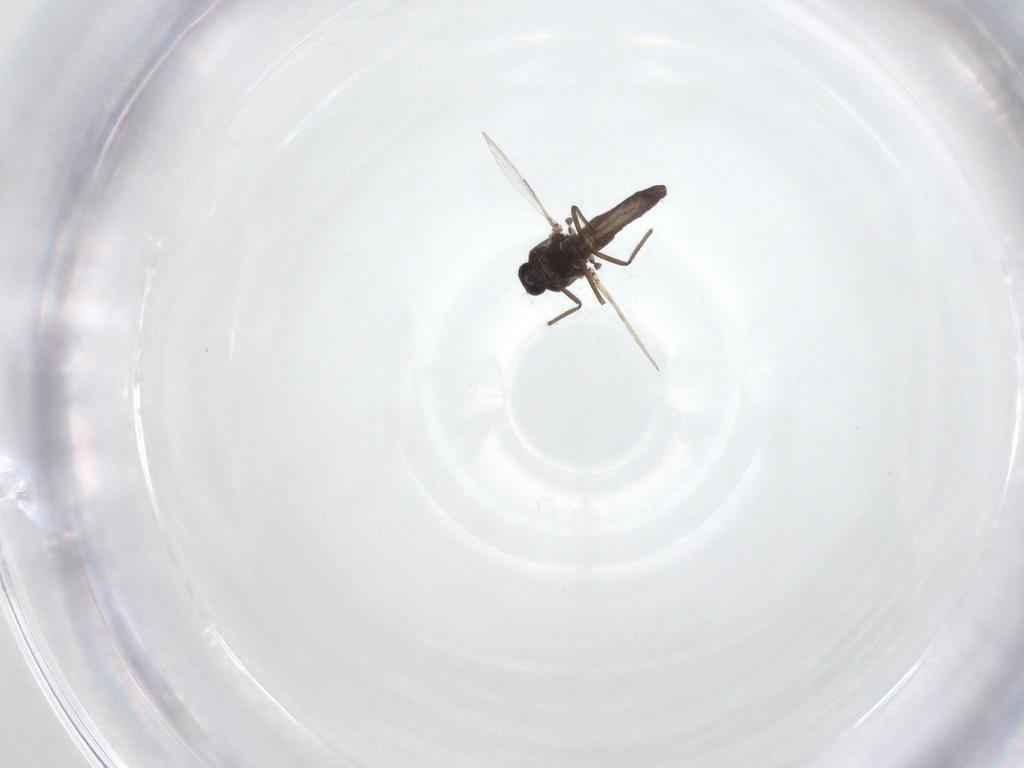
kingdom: Animalia
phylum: Arthropoda
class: Insecta
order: Diptera
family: Ceratopogonidae
